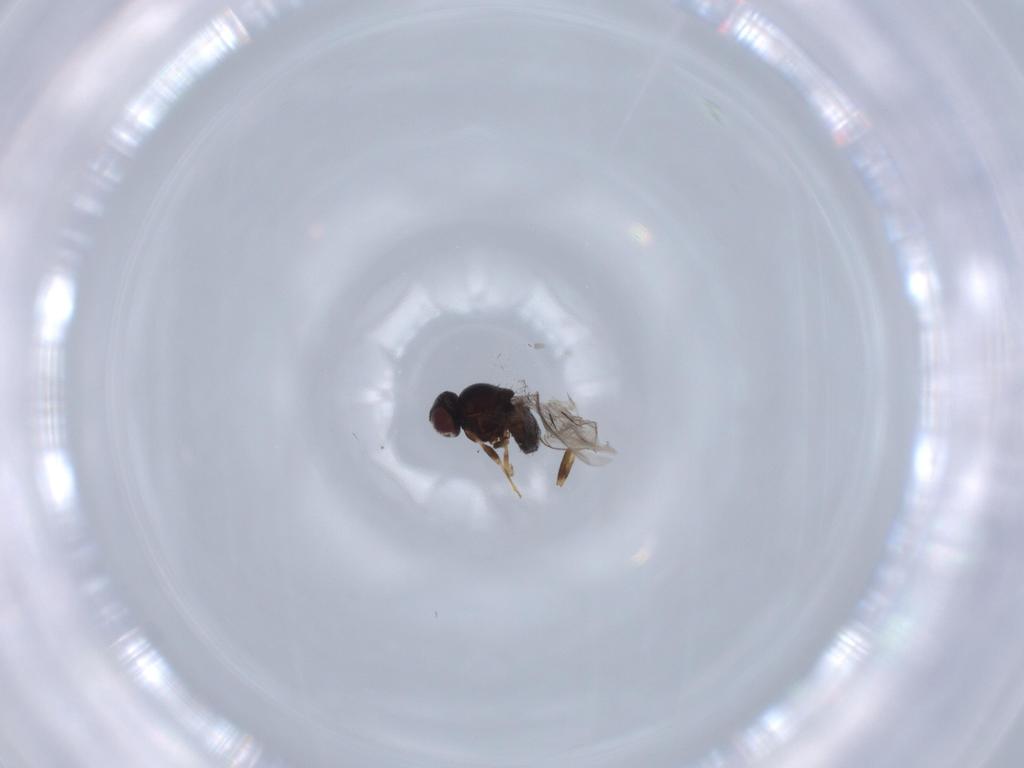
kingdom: Animalia
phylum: Arthropoda
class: Insecta
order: Diptera
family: Chloropidae
